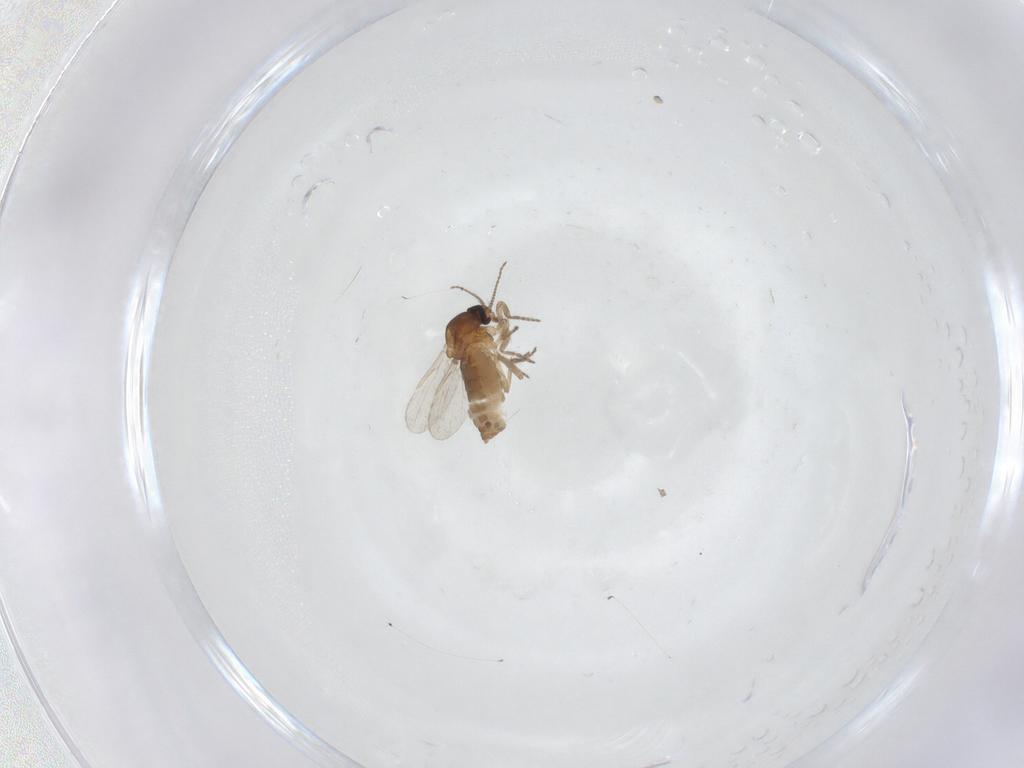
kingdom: Animalia
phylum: Arthropoda
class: Insecta
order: Diptera
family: Ceratopogonidae
